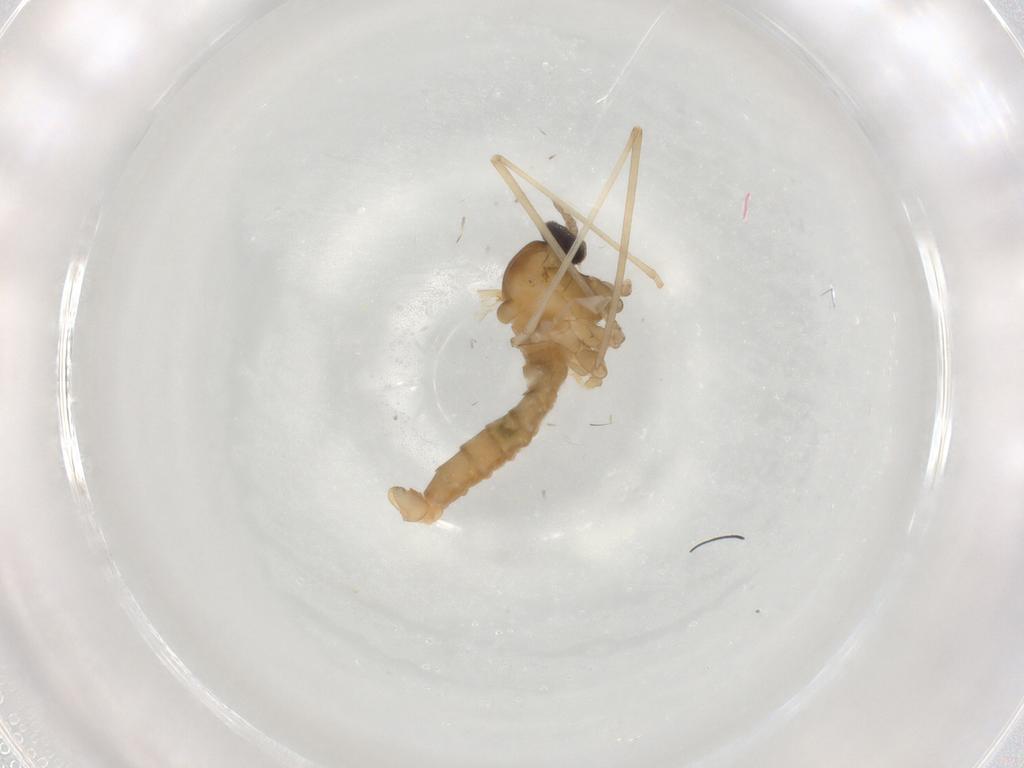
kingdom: Animalia
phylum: Arthropoda
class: Insecta
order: Diptera
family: Cecidomyiidae
